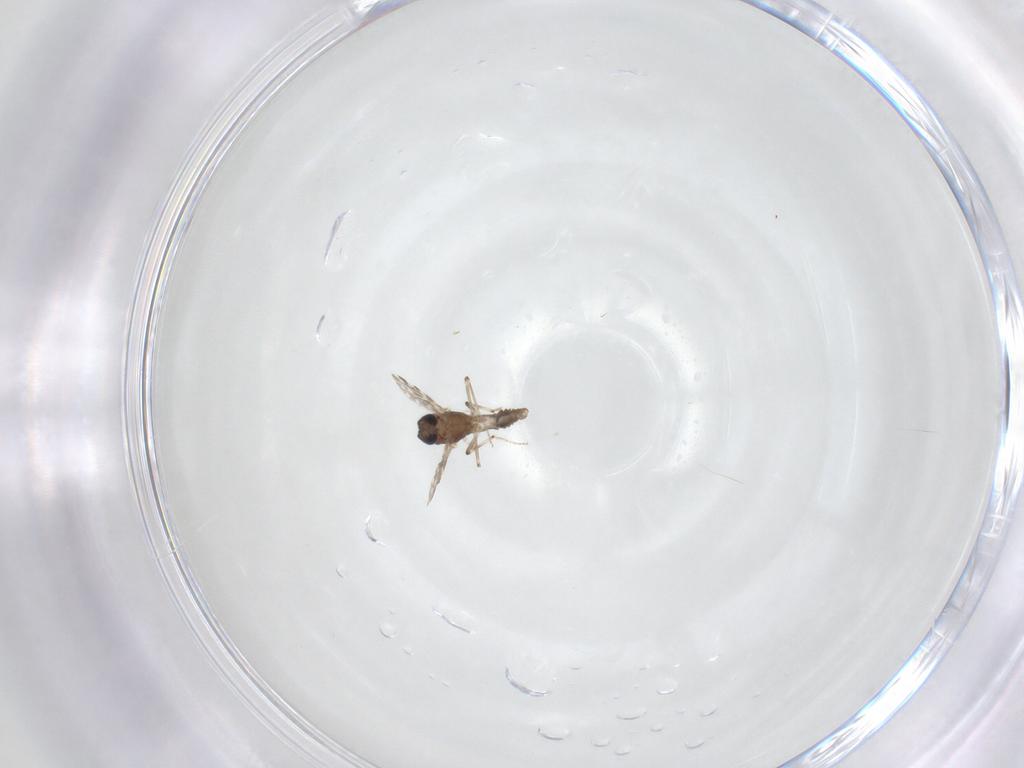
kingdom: Animalia
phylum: Arthropoda
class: Insecta
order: Diptera
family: Ceratopogonidae
